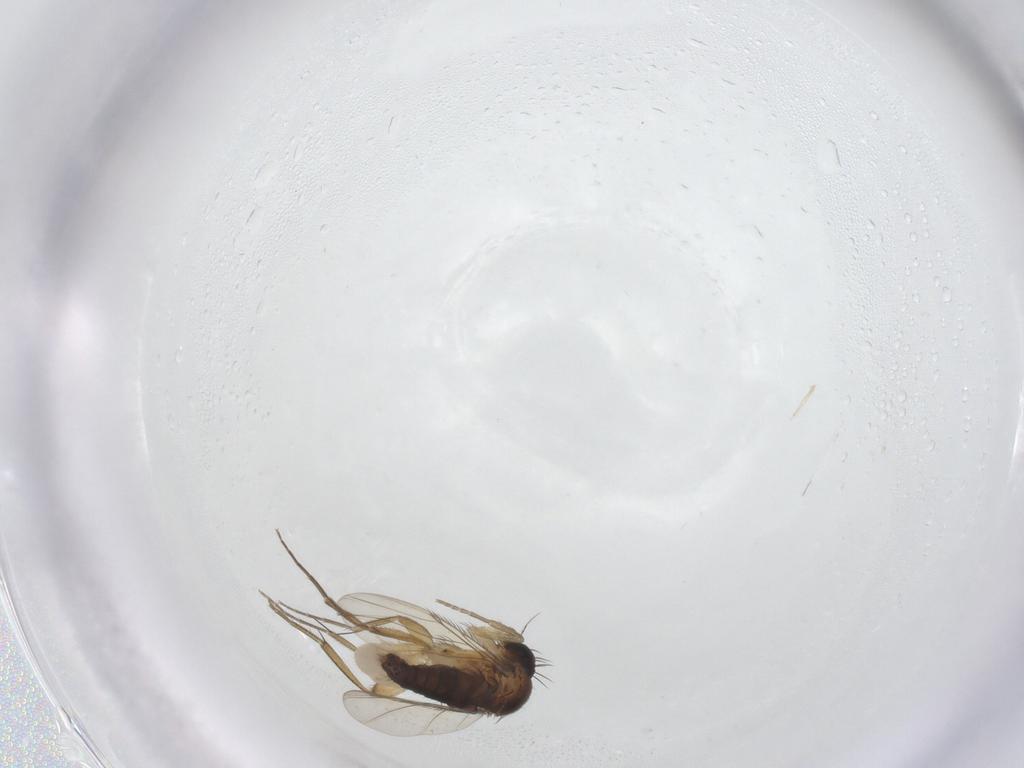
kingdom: Animalia
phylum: Arthropoda
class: Insecta
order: Diptera
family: Phoridae
